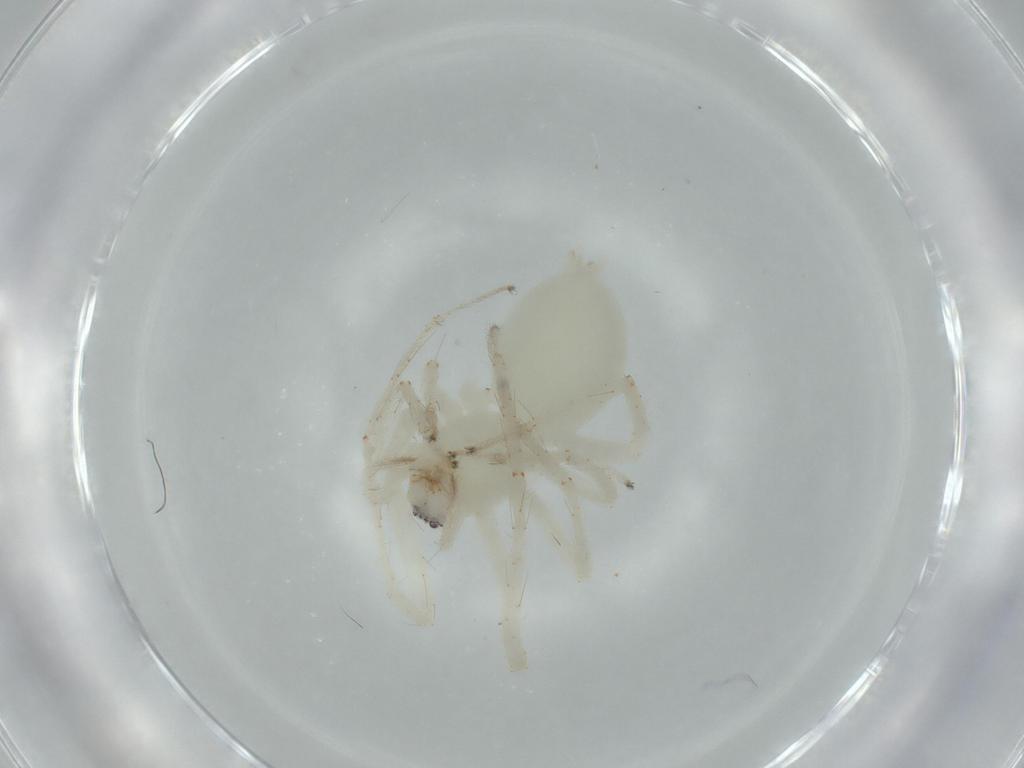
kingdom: Animalia
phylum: Arthropoda
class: Arachnida
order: Araneae
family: Anyphaenidae
